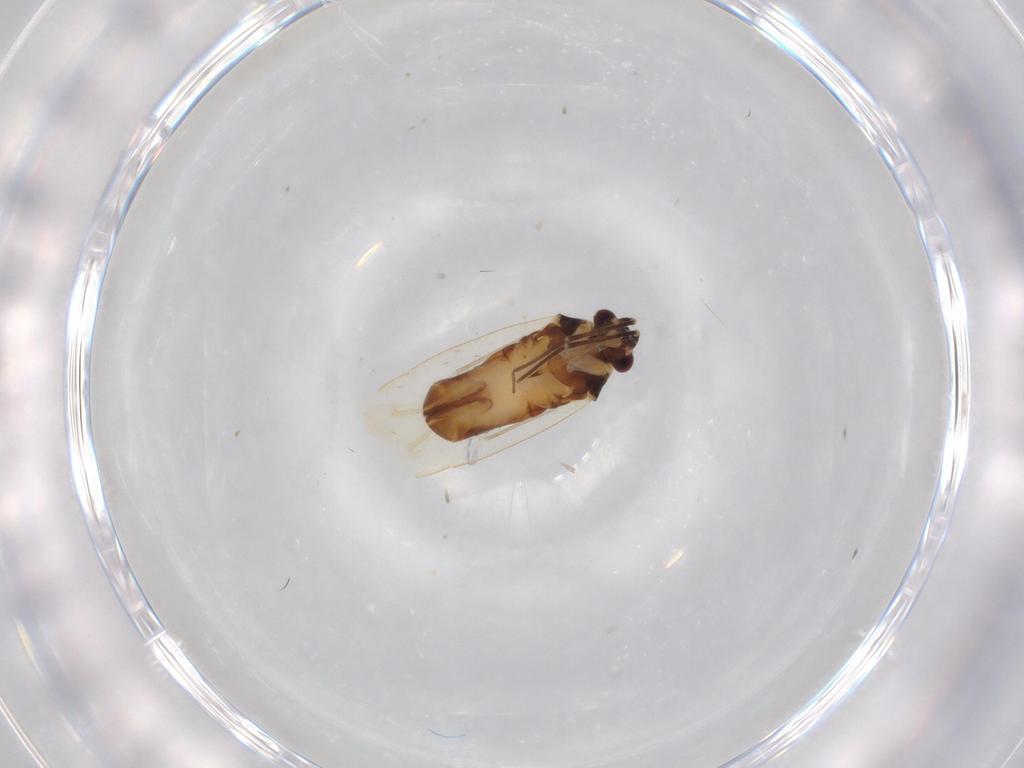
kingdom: Animalia
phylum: Arthropoda
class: Insecta
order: Hemiptera
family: Miridae
